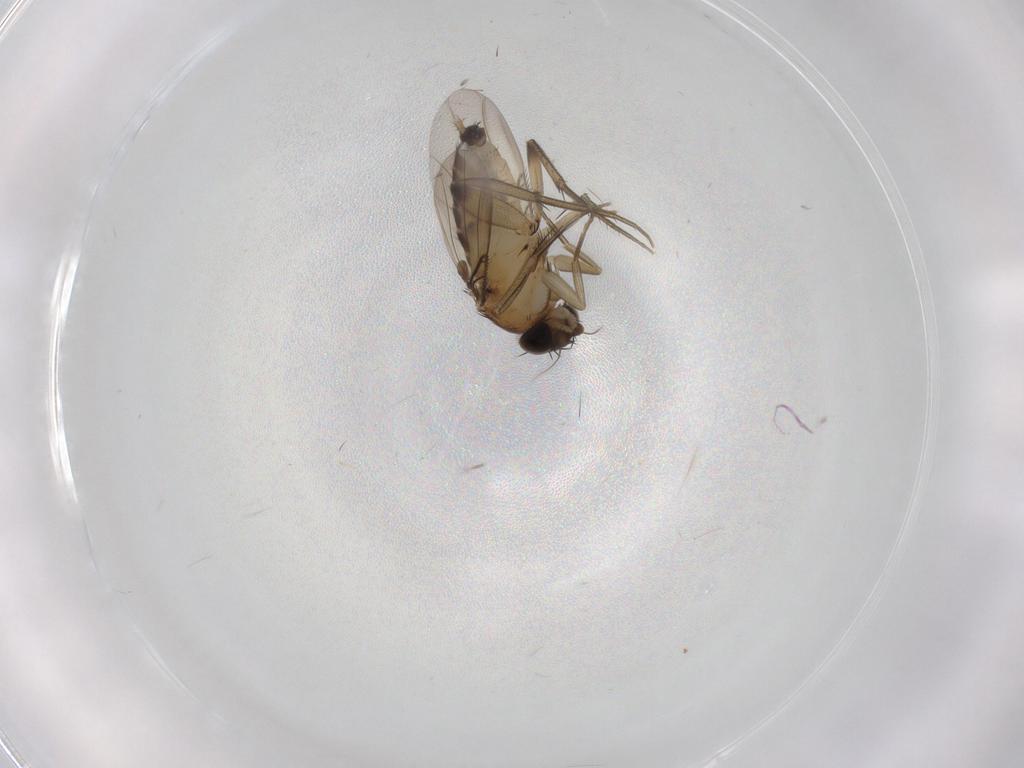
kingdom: Animalia
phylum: Arthropoda
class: Insecta
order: Diptera
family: Phoridae
